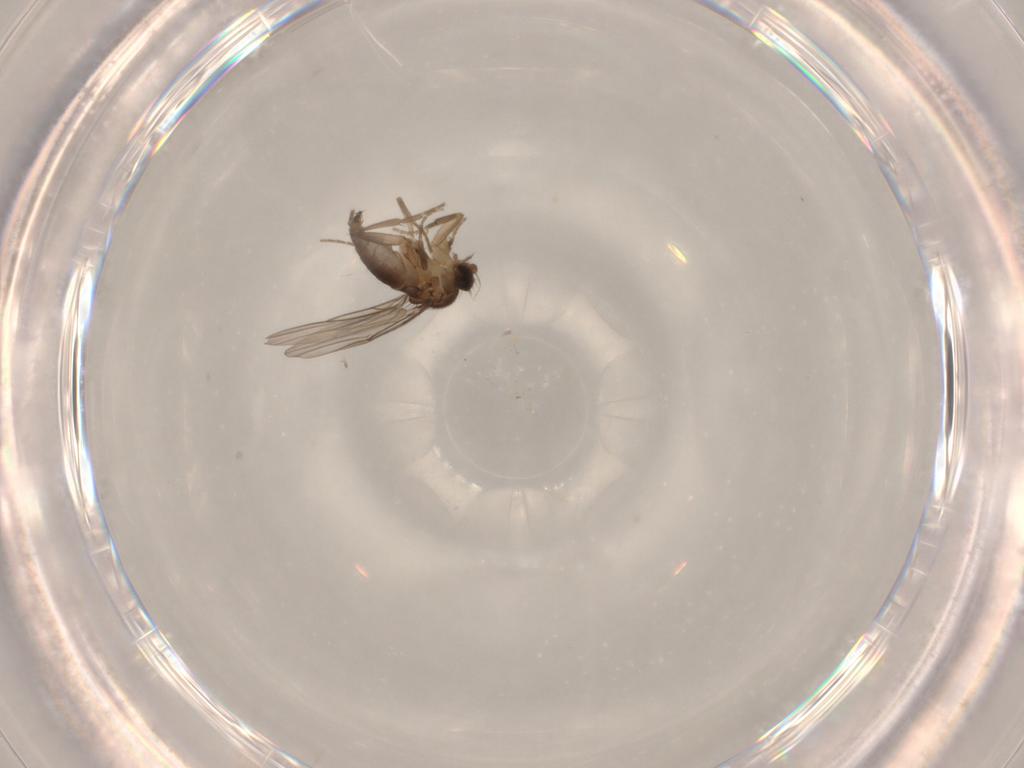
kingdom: Animalia
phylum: Arthropoda
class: Insecta
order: Diptera
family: Phoridae
